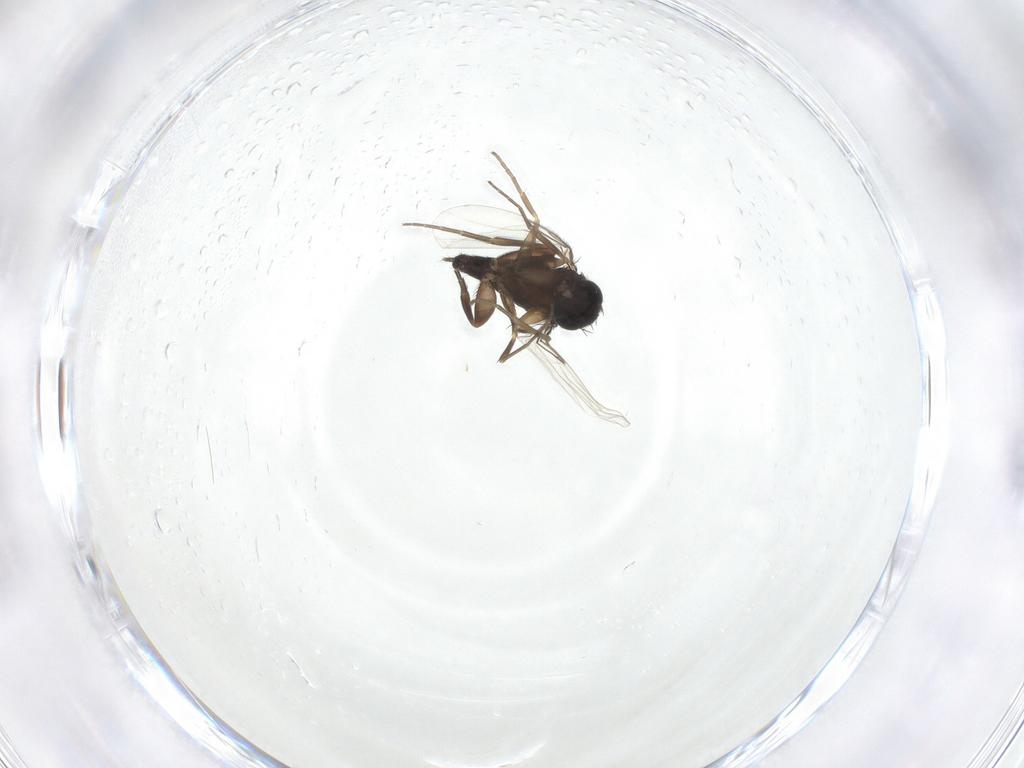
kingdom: Animalia
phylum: Arthropoda
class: Insecta
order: Diptera
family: Phoridae
